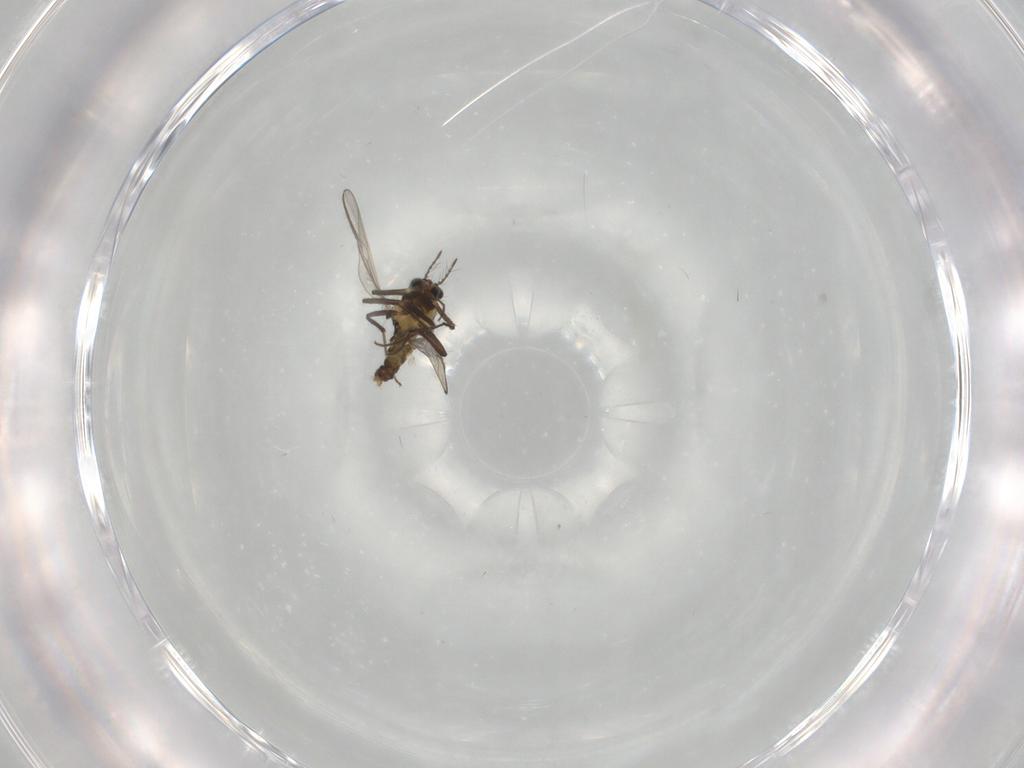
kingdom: Animalia
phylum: Arthropoda
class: Insecta
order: Diptera
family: Chironomidae
